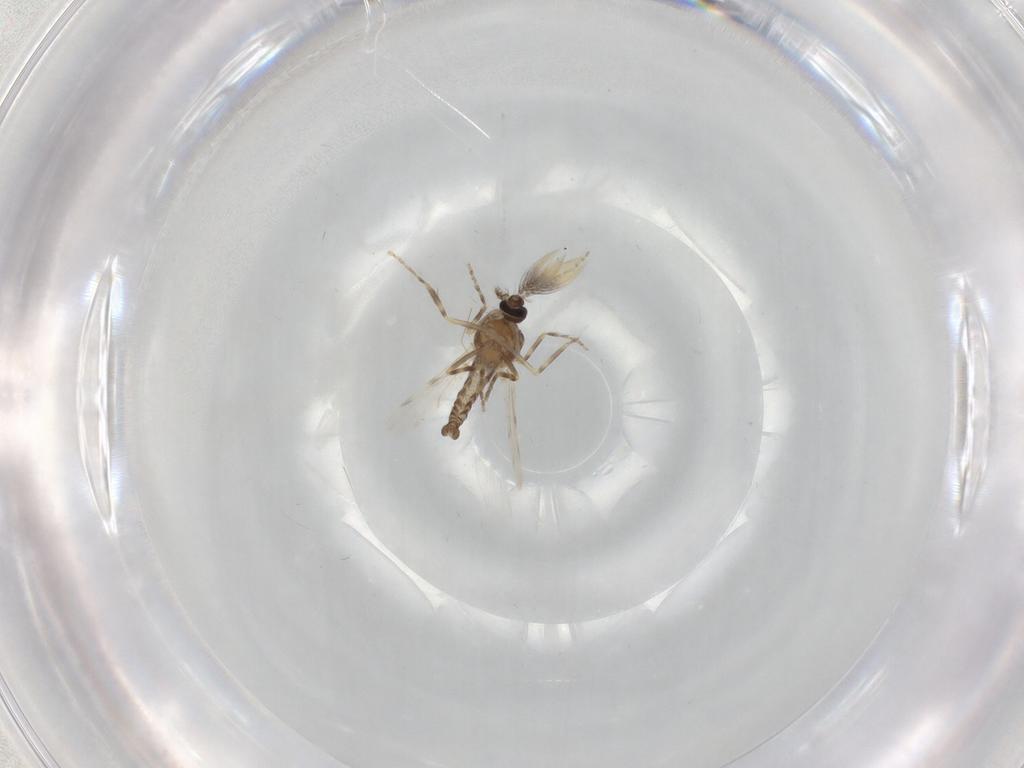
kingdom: Animalia
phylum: Arthropoda
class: Insecta
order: Diptera
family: Ceratopogonidae
